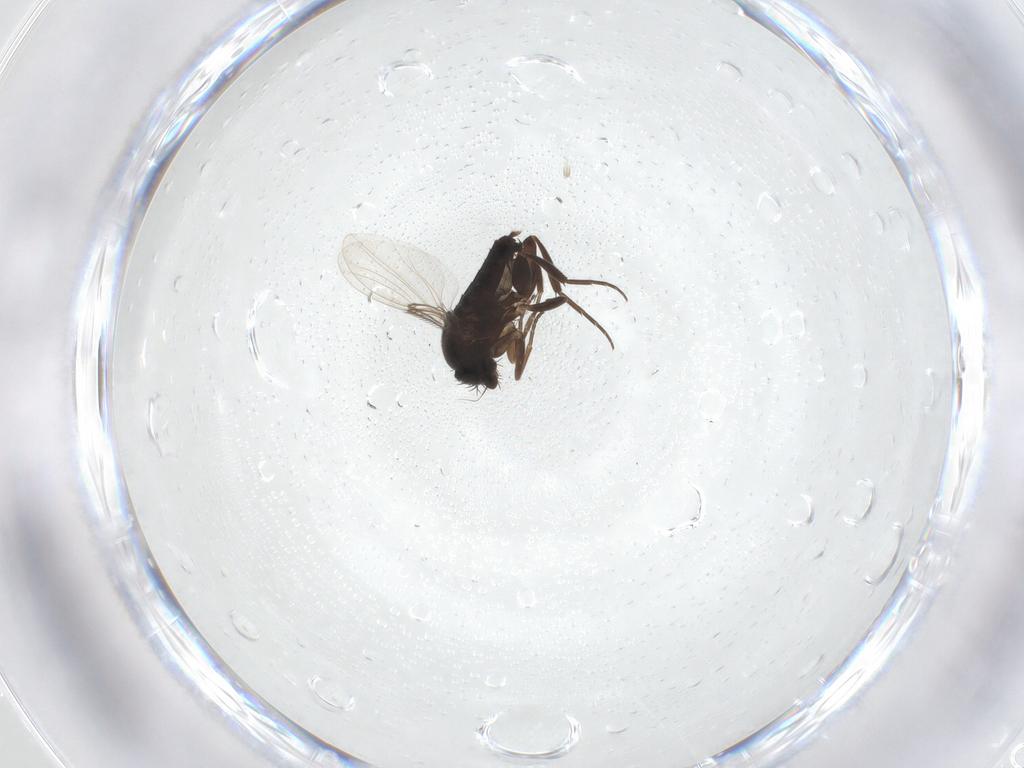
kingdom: Animalia
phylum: Arthropoda
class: Insecta
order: Diptera
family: Phoridae
